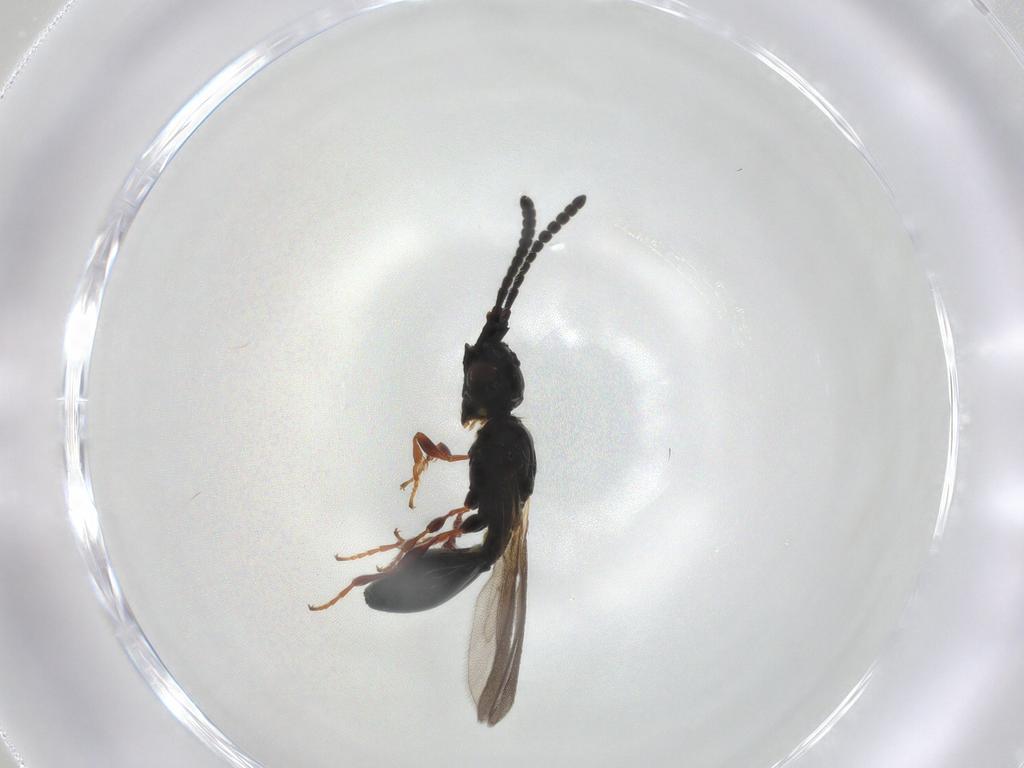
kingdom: Animalia
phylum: Arthropoda
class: Insecta
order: Hymenoptera
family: Diapriidae
